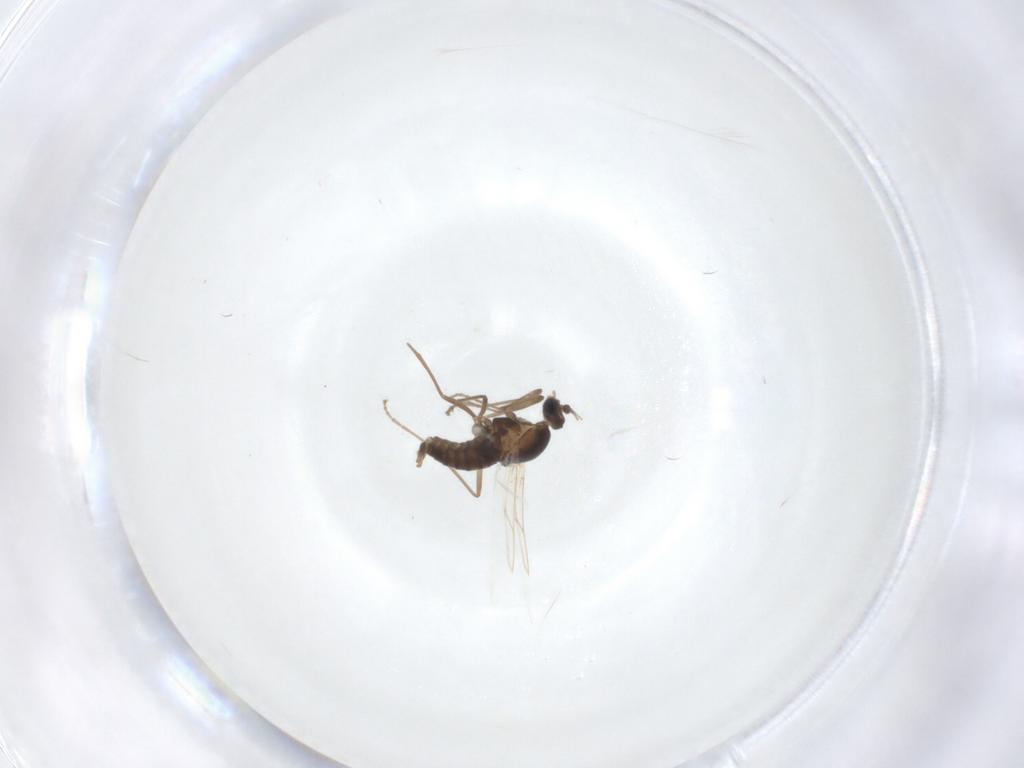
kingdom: Animalia
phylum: Arthropoda
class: Insecta
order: Diptera
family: Cecidomyiidae
